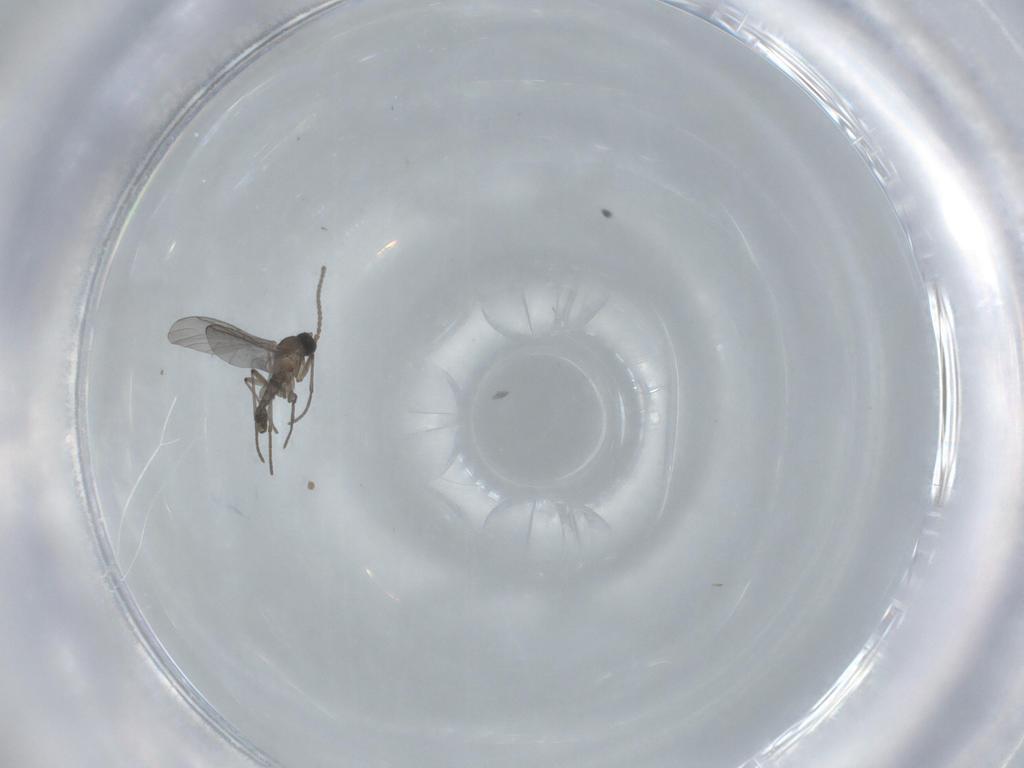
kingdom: Animalia
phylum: Arthropoda
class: Insecta
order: Diptera
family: Sciaridae
